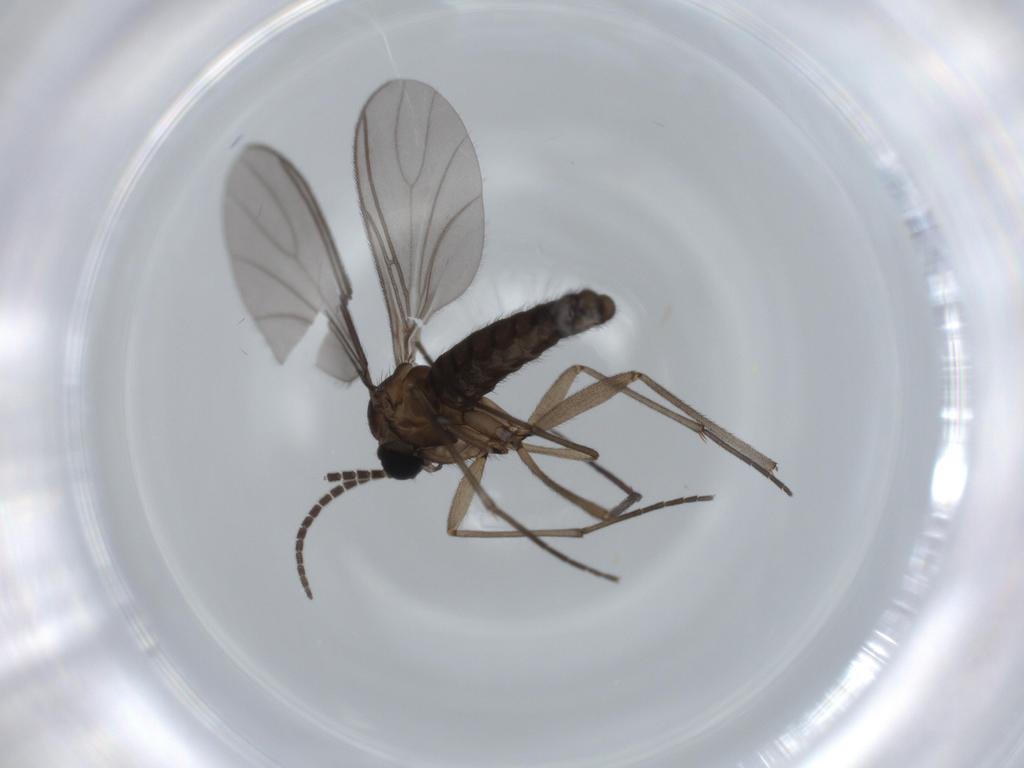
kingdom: Animalia
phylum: Arthropoda
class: Insecta
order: Diptera
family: Sciaridae
